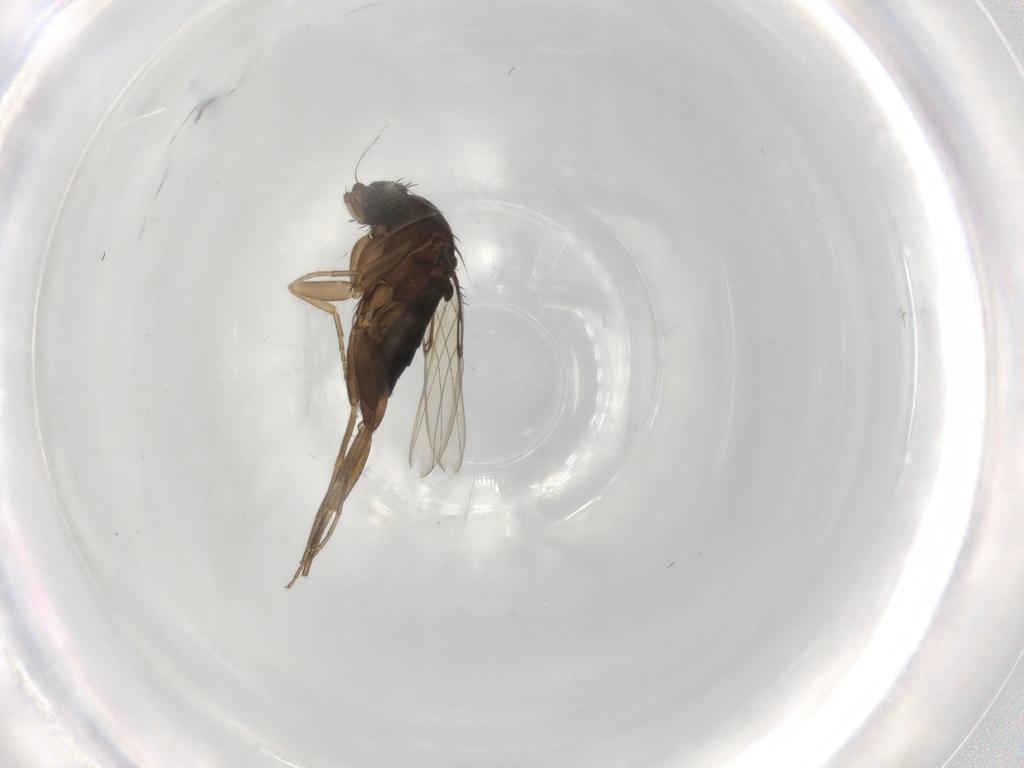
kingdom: Animalia
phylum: Arthropoda
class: Insecta
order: Diptera
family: Phoridae
